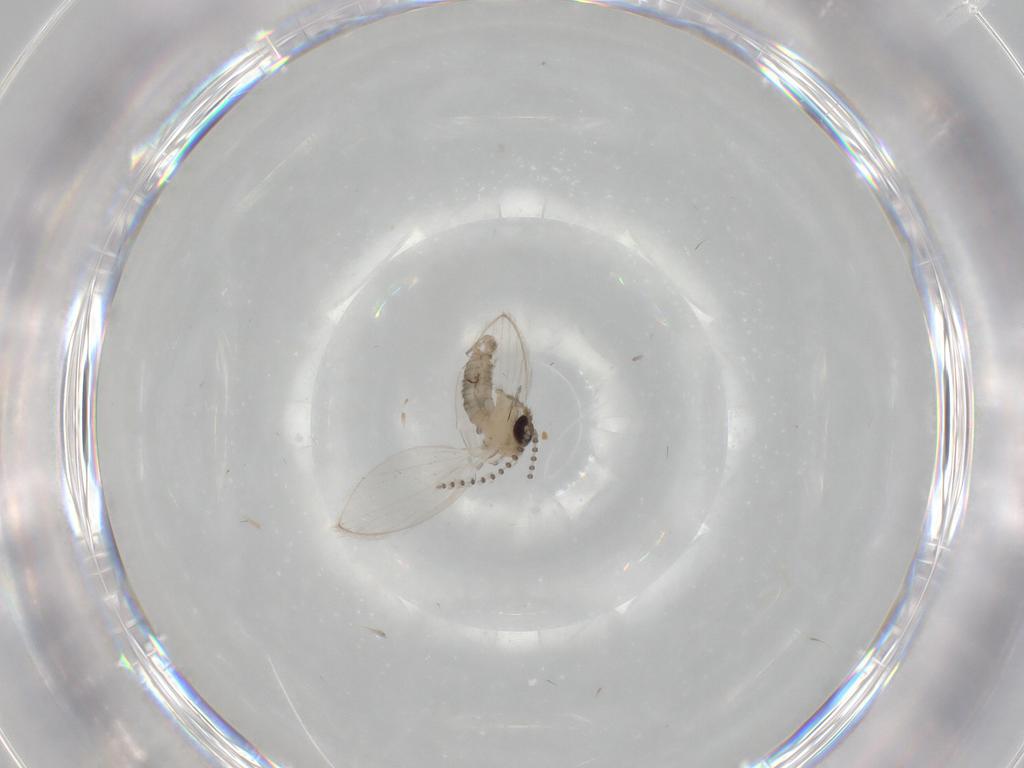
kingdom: Animalia
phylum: Arthropoda
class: Insecta
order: Diptera
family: Psychodidae
